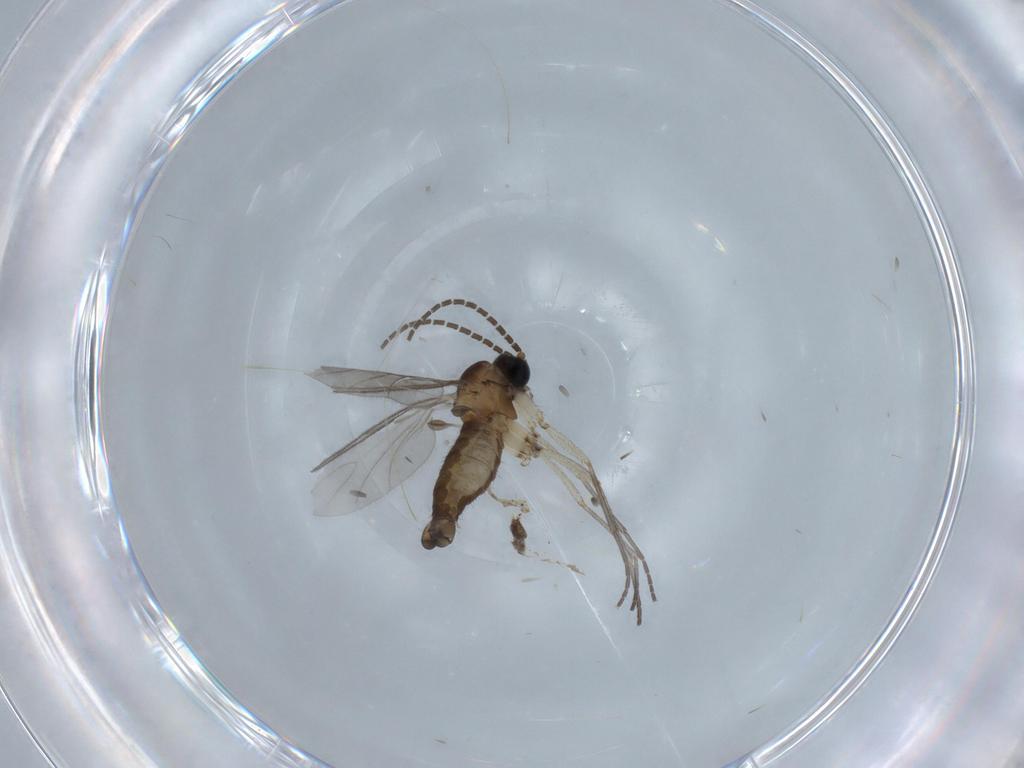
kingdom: Animalia
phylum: Arthropoda
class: Insecta
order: Diptera
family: Sciaridae
